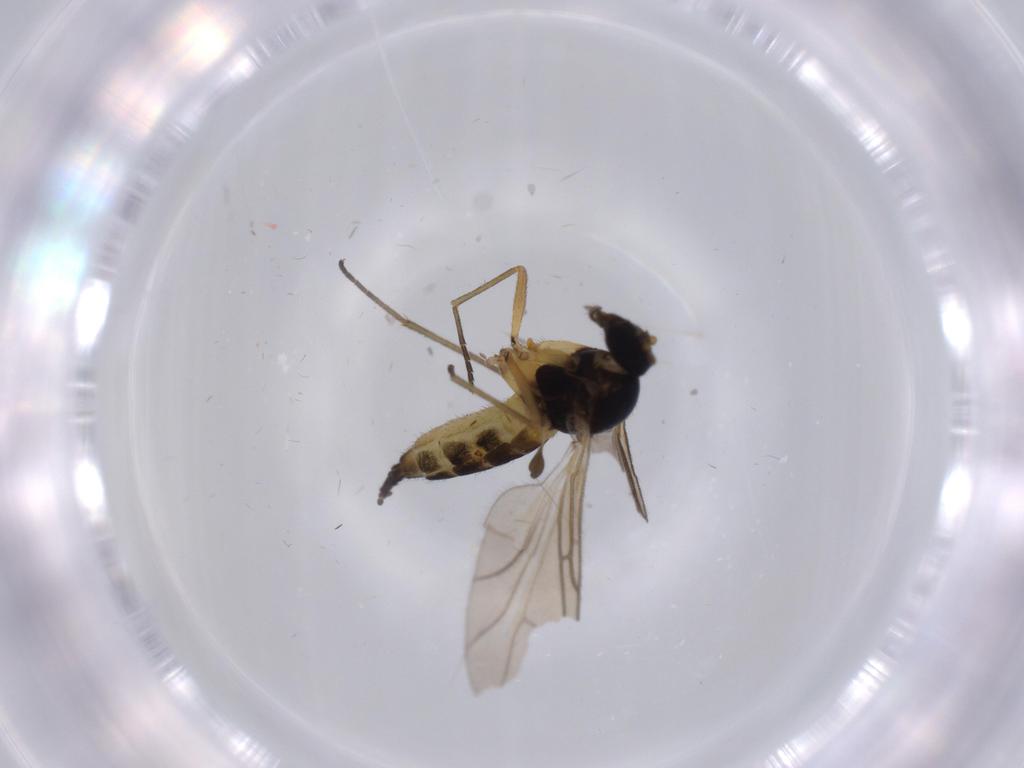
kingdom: Animalia
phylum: Arthropoda
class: Insecta
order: Diptera
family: Sciaridae
